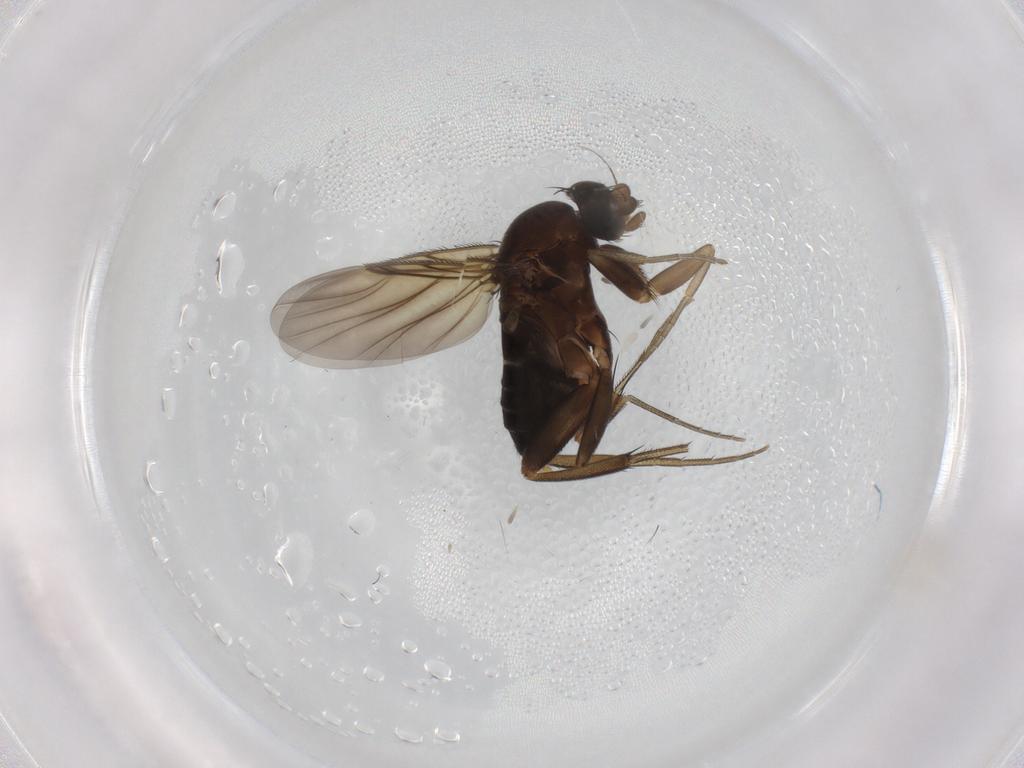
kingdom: Animalia
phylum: Arthropoda
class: Insecta
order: Diptera
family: Phoridae
